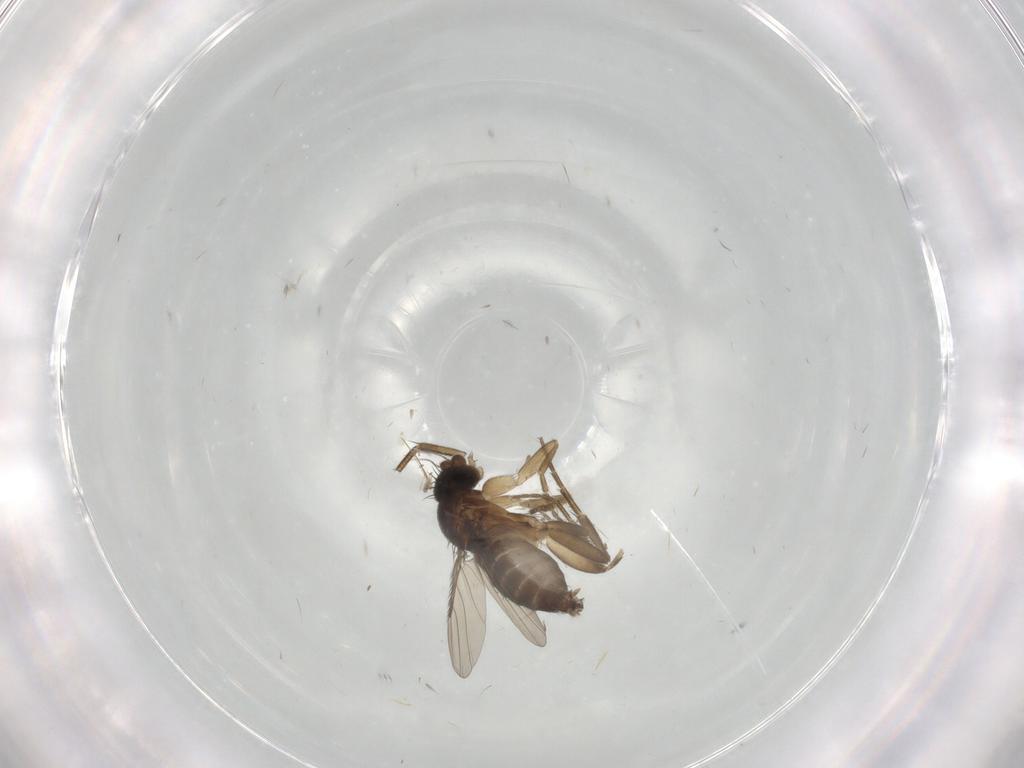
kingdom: Animalia
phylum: Arthropoda
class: Insecta
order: Diptera
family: Phoridae
